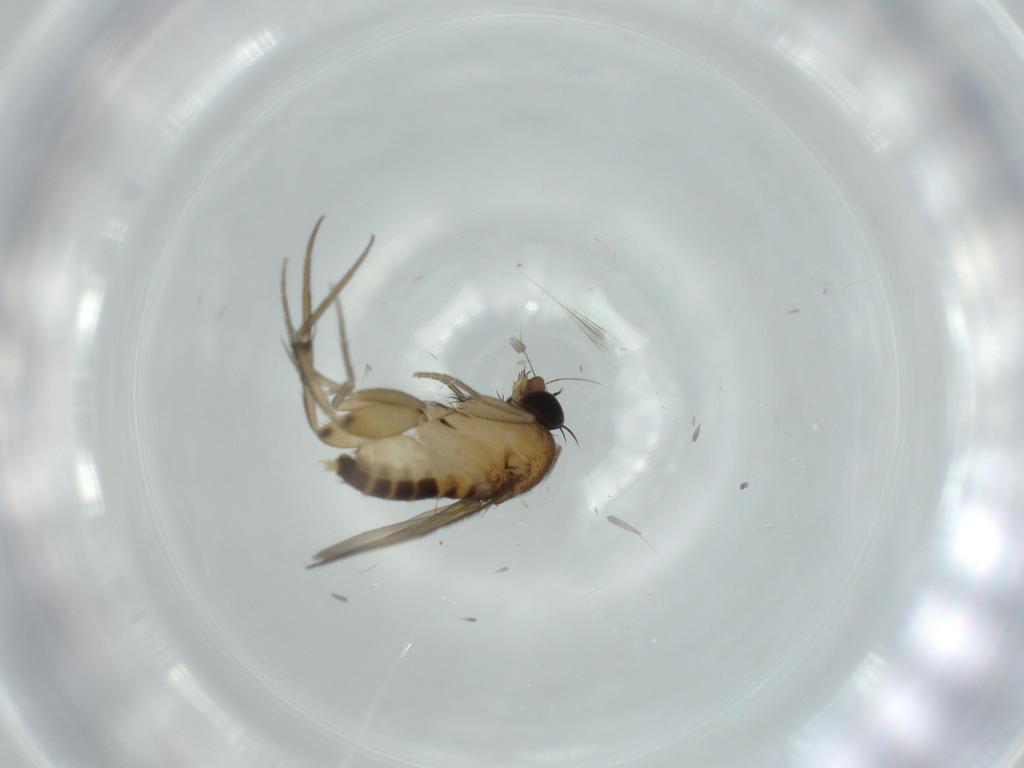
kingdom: Animalia
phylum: Arthropoda
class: Insecta
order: Diptera
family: Phoridae
